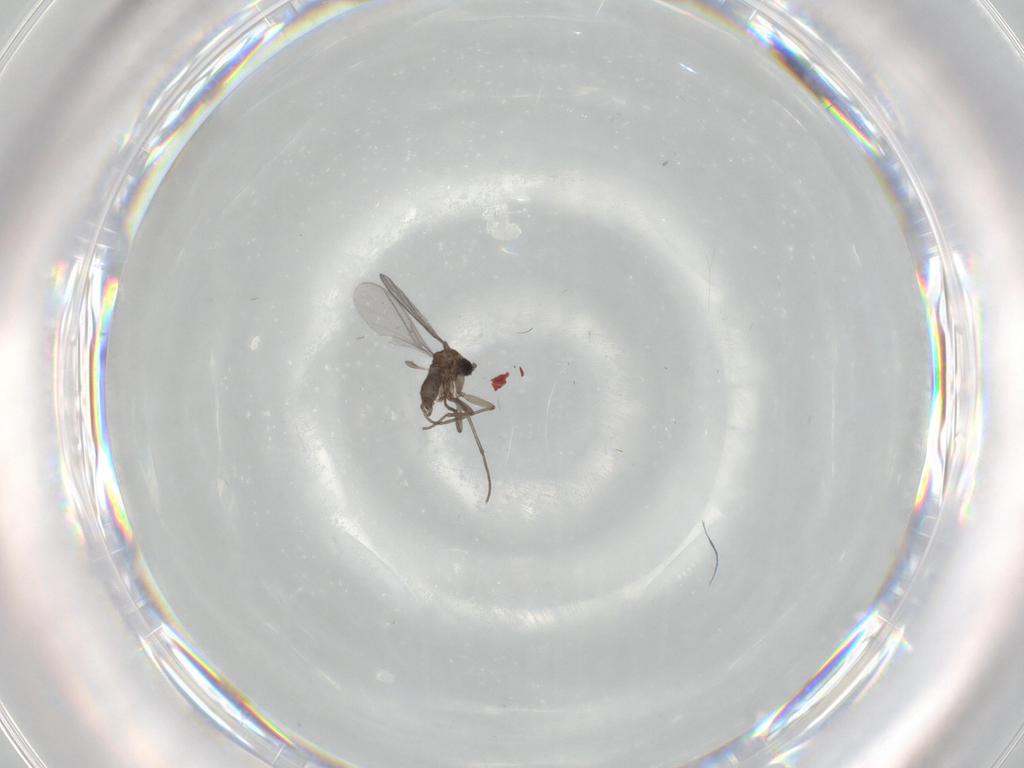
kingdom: Animalia
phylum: Arthropoda
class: Insecta
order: Diptera
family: Sciaridae
